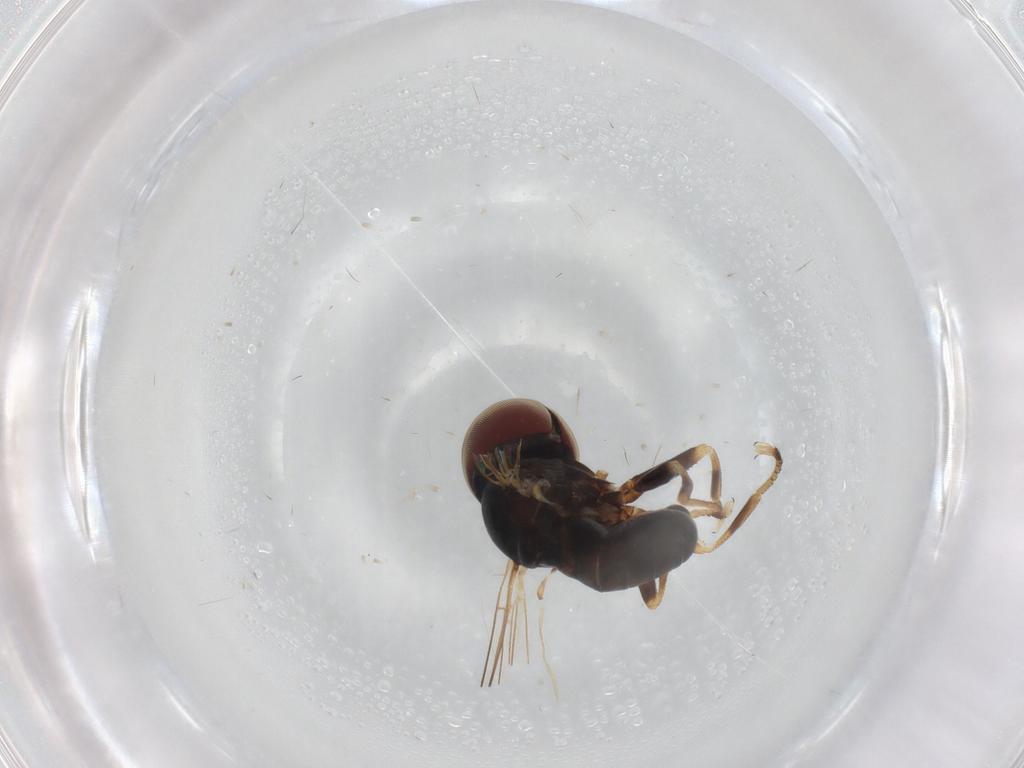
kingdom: Animalia
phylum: Arthropoda
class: Insecta
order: Diptera
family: Pipunculidae
